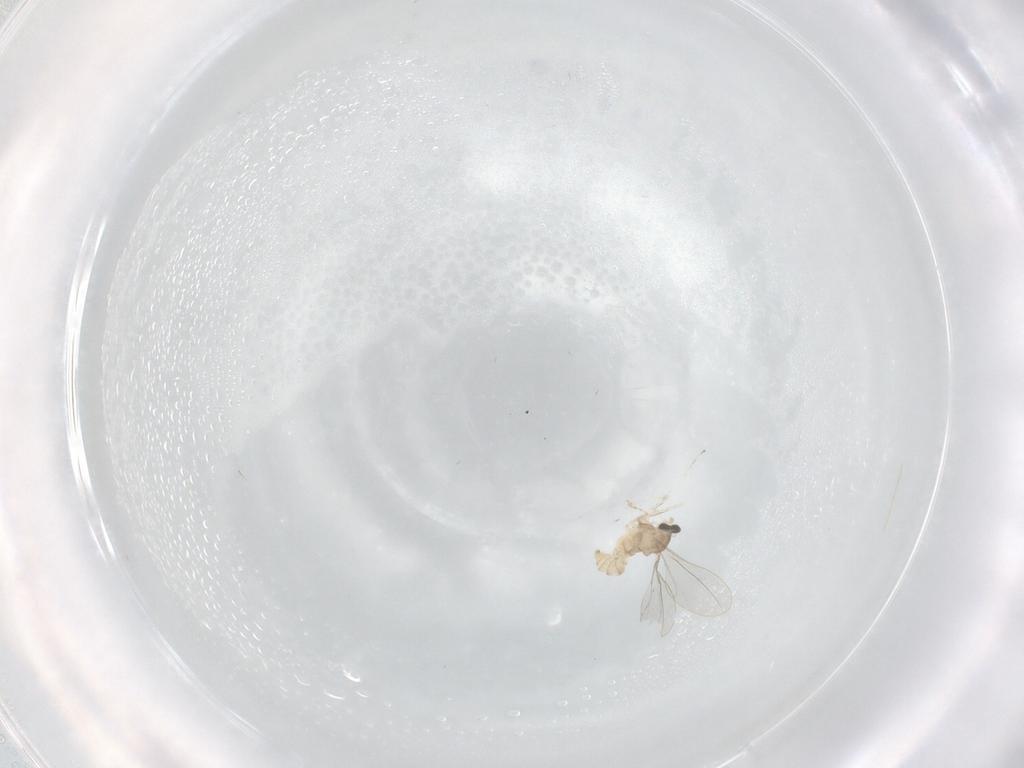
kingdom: Animalia
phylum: Arthropoda
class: Insecta
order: Diptera
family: Cecidomyiidae
